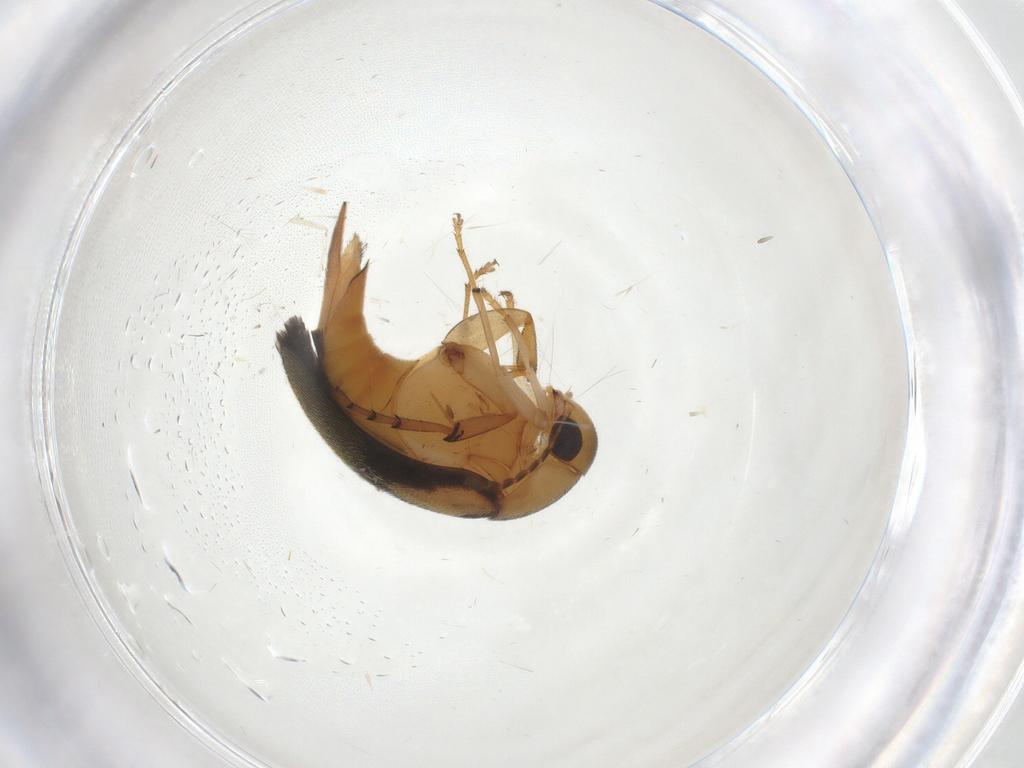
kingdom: Animalia
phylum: Arthropoda
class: Insecta
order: Coleoptera
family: Mordellidae
